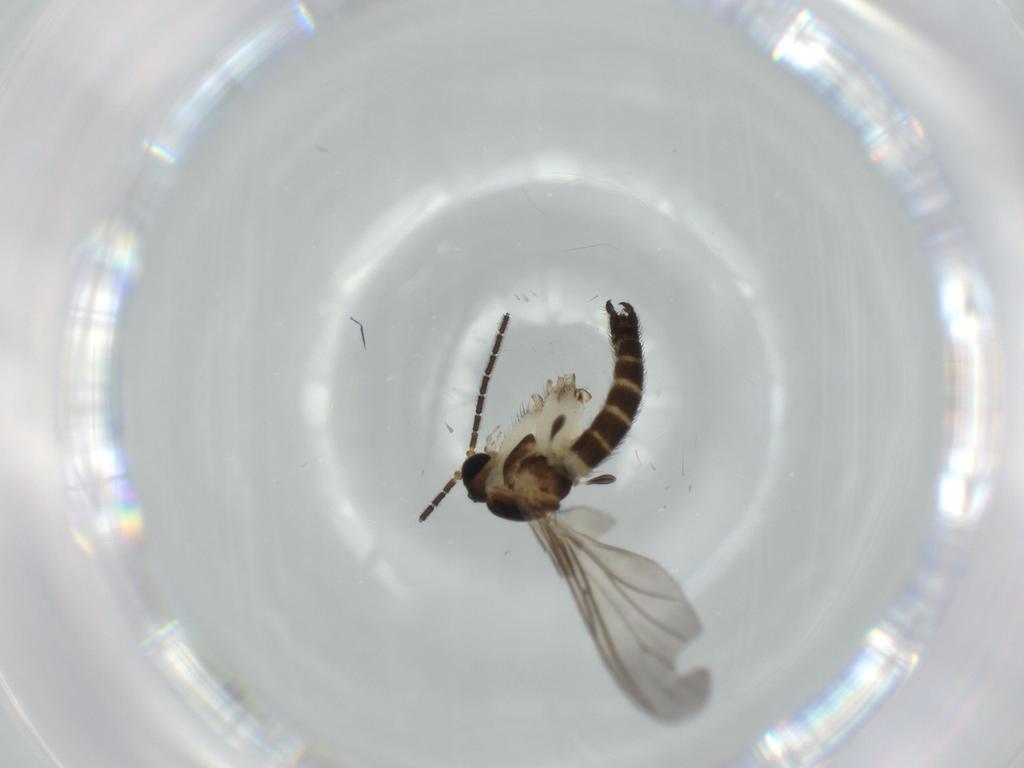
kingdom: Animalia
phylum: Arthropoda
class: Insecta
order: Diptera
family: Sciaridae
